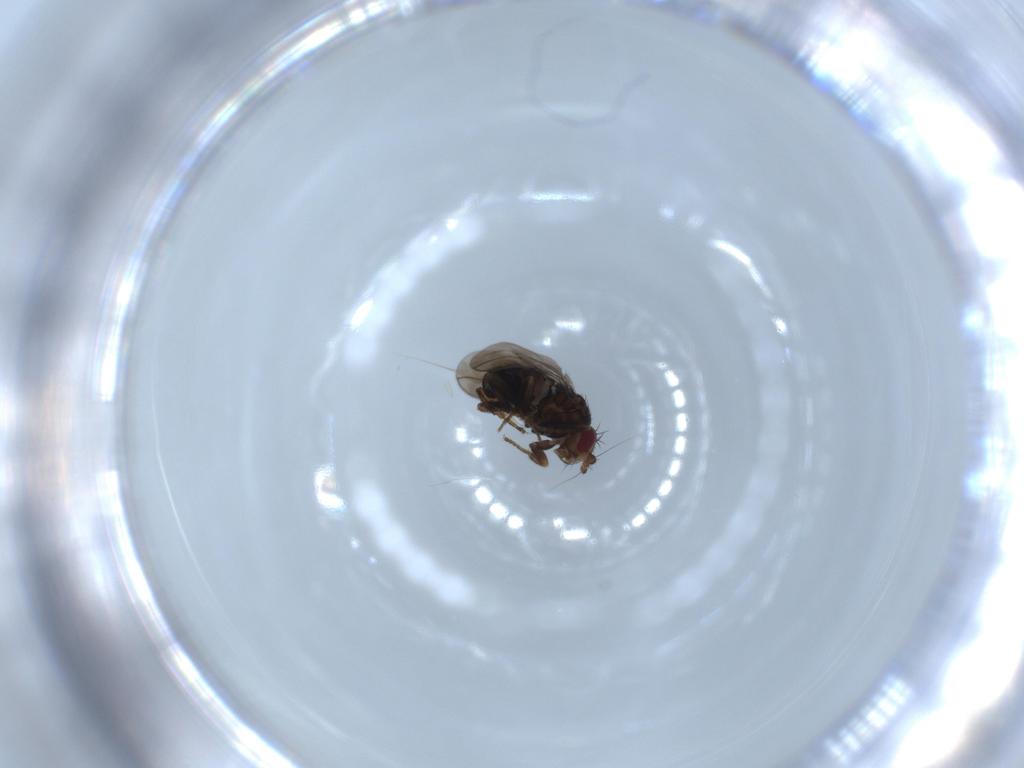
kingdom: Animalia
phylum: Arthropoda
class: Insecta
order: Diptera
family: Sphaeroceridae
